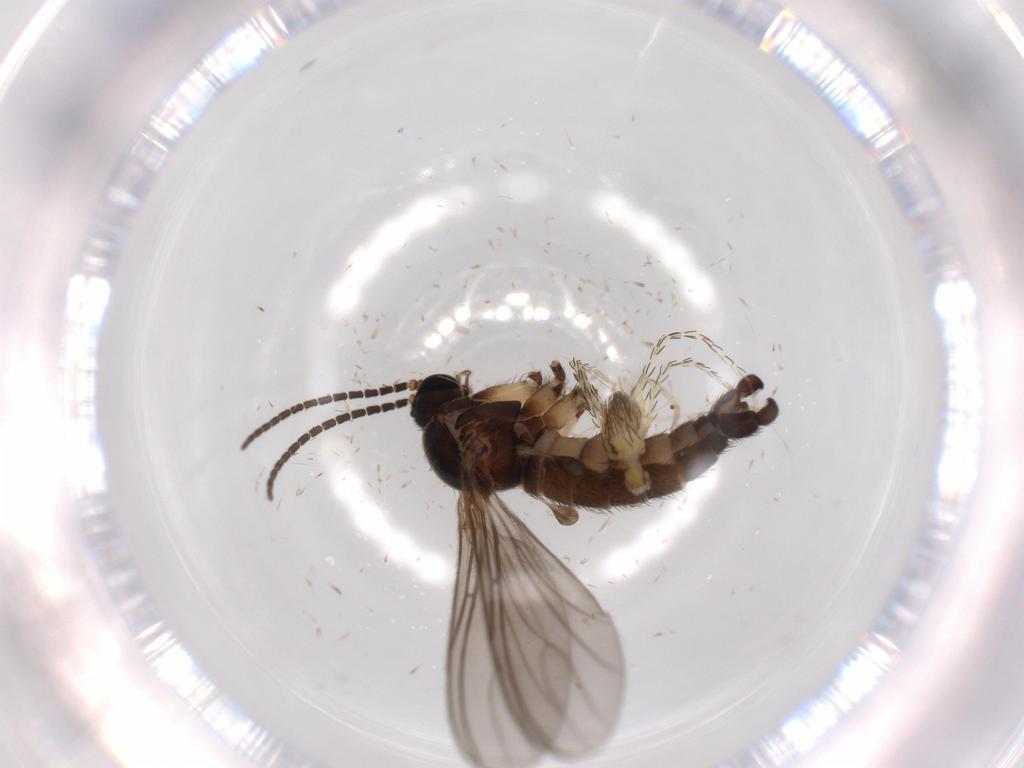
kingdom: Animalia
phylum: Arthropoda
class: Insecta
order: Diptera
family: Sciaridae
